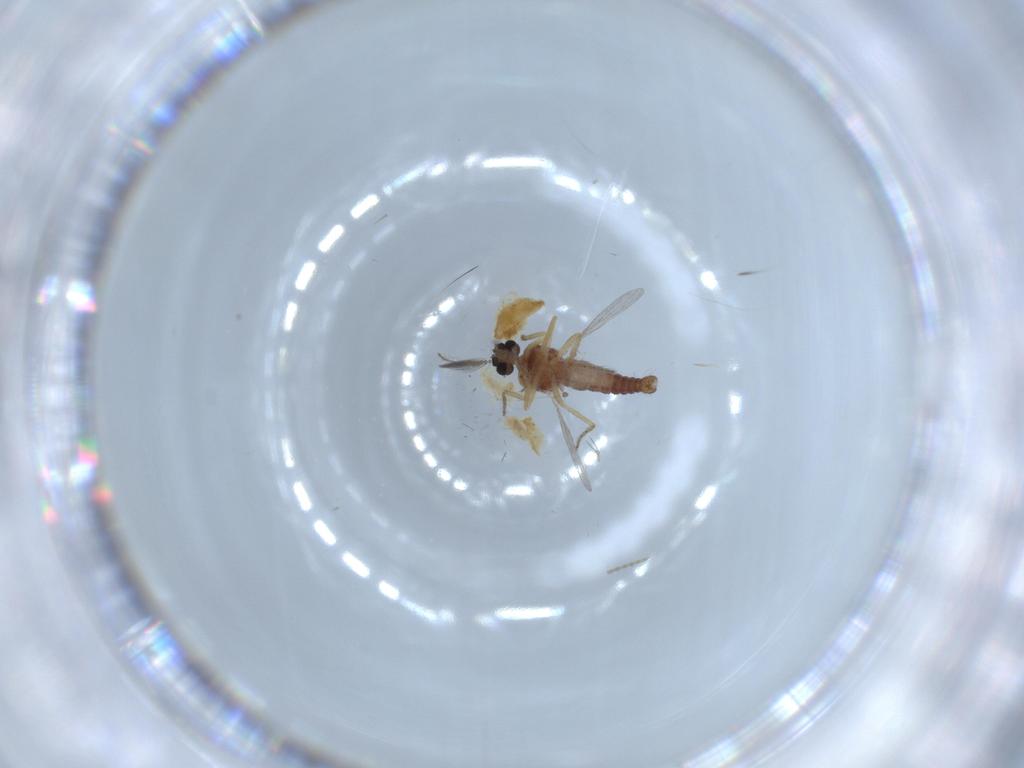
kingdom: Animalia
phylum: Arthropoda
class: Insecta
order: Diptera
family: Ceratopogonidae
